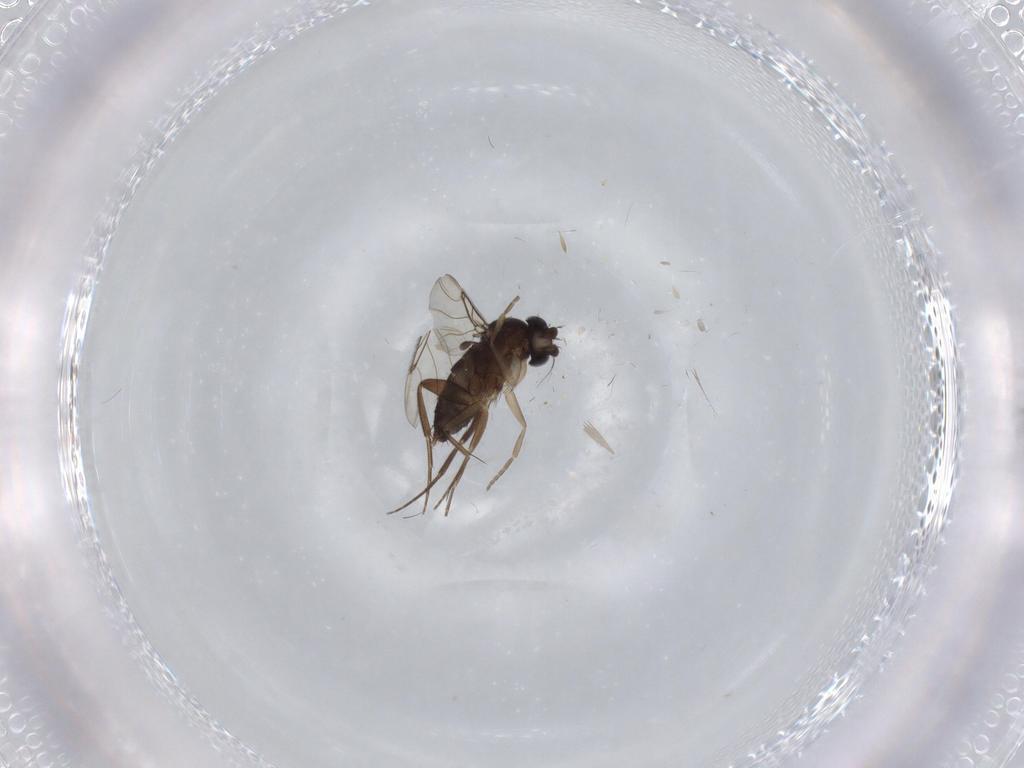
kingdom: Animalia
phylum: Arthropoda
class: Insecta
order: Diptera
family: Phoridae
